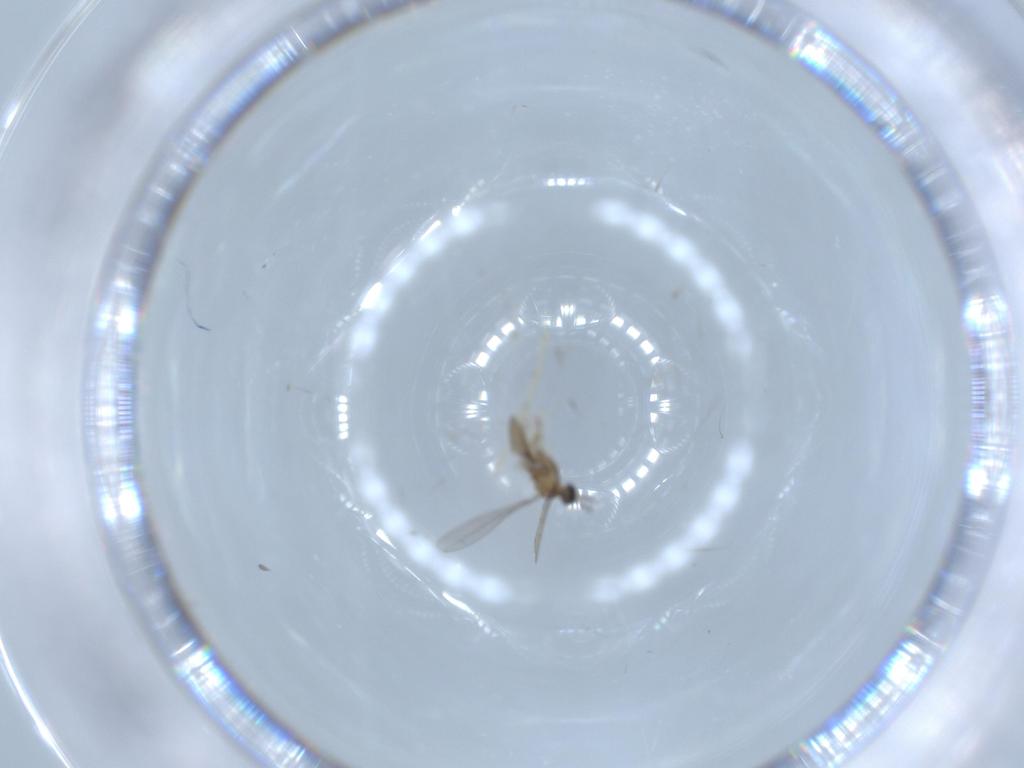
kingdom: Animalia
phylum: Arthropoda
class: Insecta
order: Diptera
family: Cecidomyiidae
